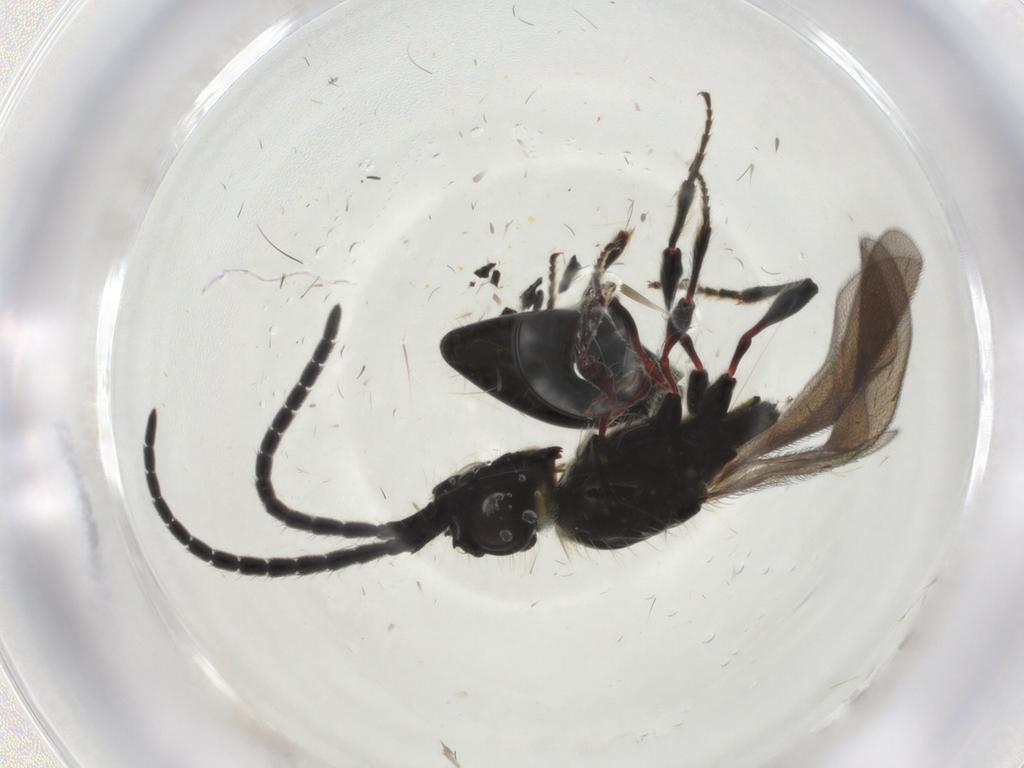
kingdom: Animalia
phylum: Arthropoda
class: Insecta
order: Hymenoptera
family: Diapriidae
